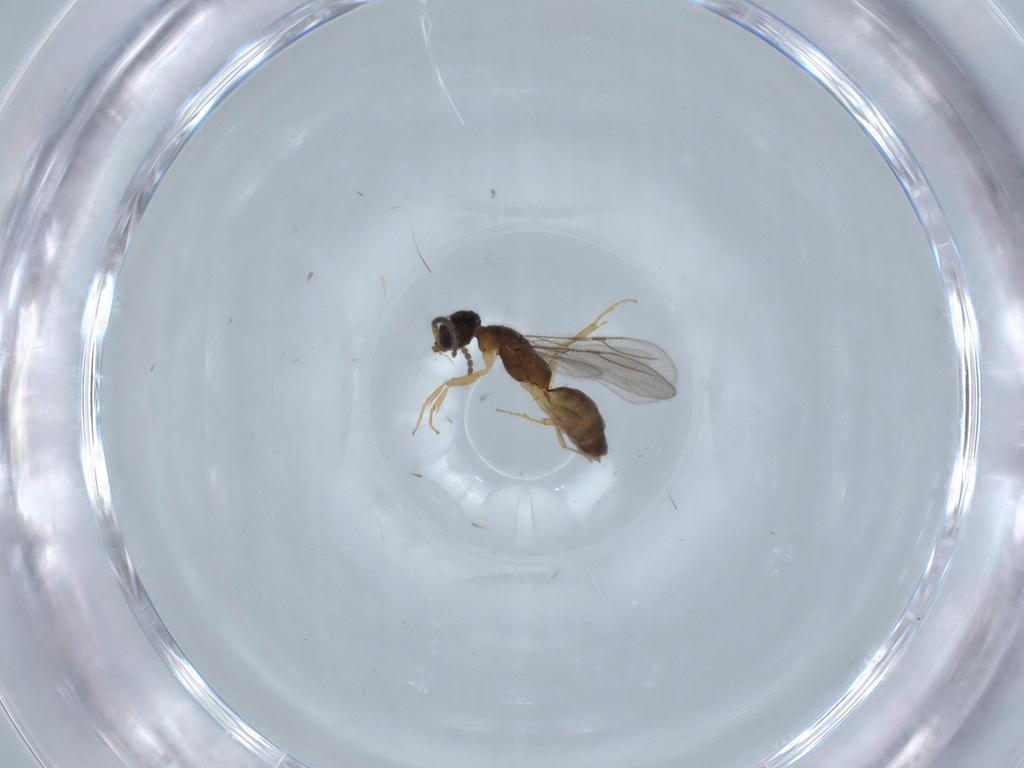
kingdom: Animalia
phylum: Arthropoda
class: Insecta
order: Hymenoptera
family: Bethylidae
